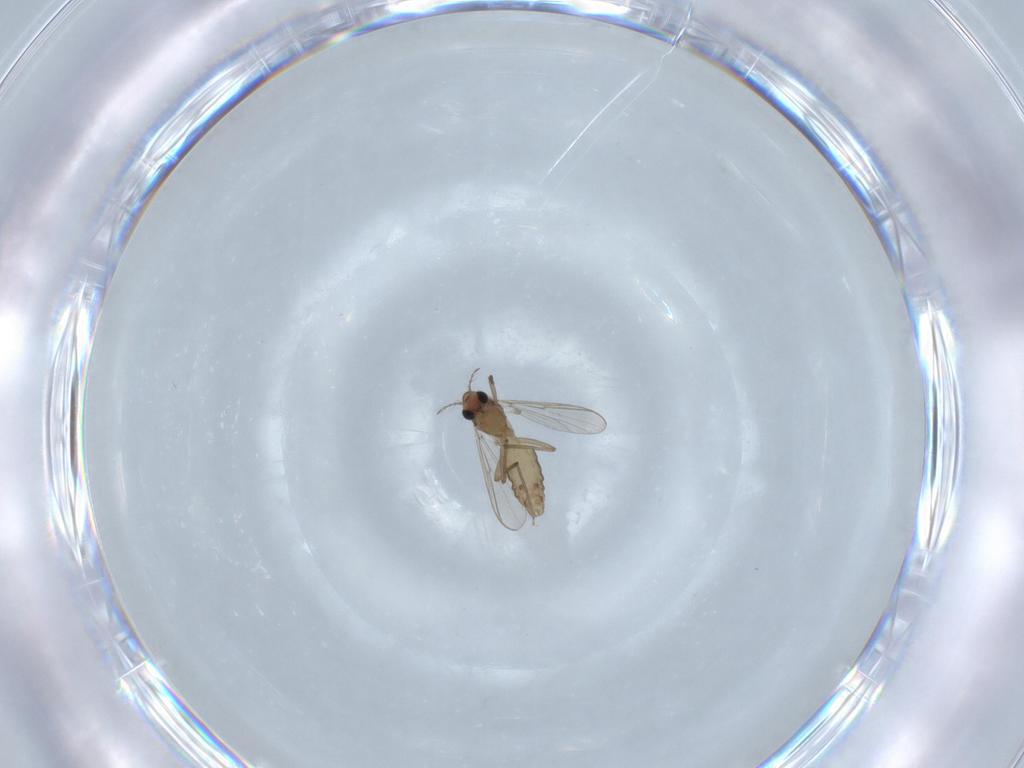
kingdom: Animalia
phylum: Arthropoda
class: Insecta
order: Diptera
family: Chironomidae
